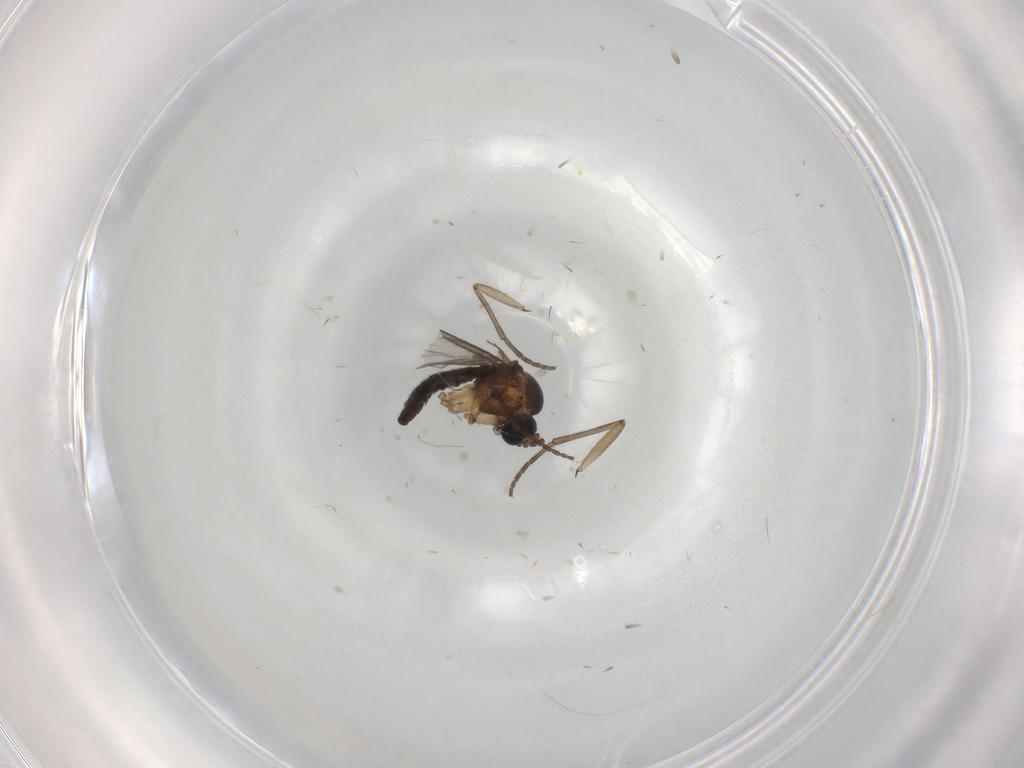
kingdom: Animalia
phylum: Arthropoda
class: Insecta
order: Diptera
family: Sciaridae
